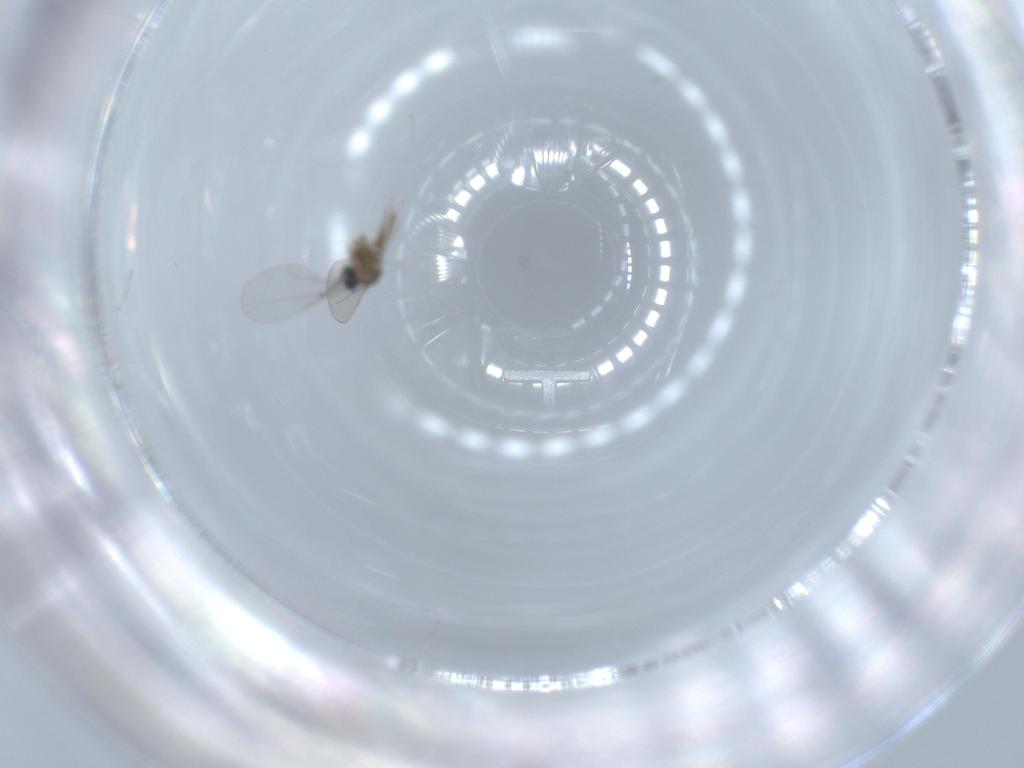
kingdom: Animalia
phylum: Arthropoda
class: Insecta
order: Diptera
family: Cecidomyiidae
